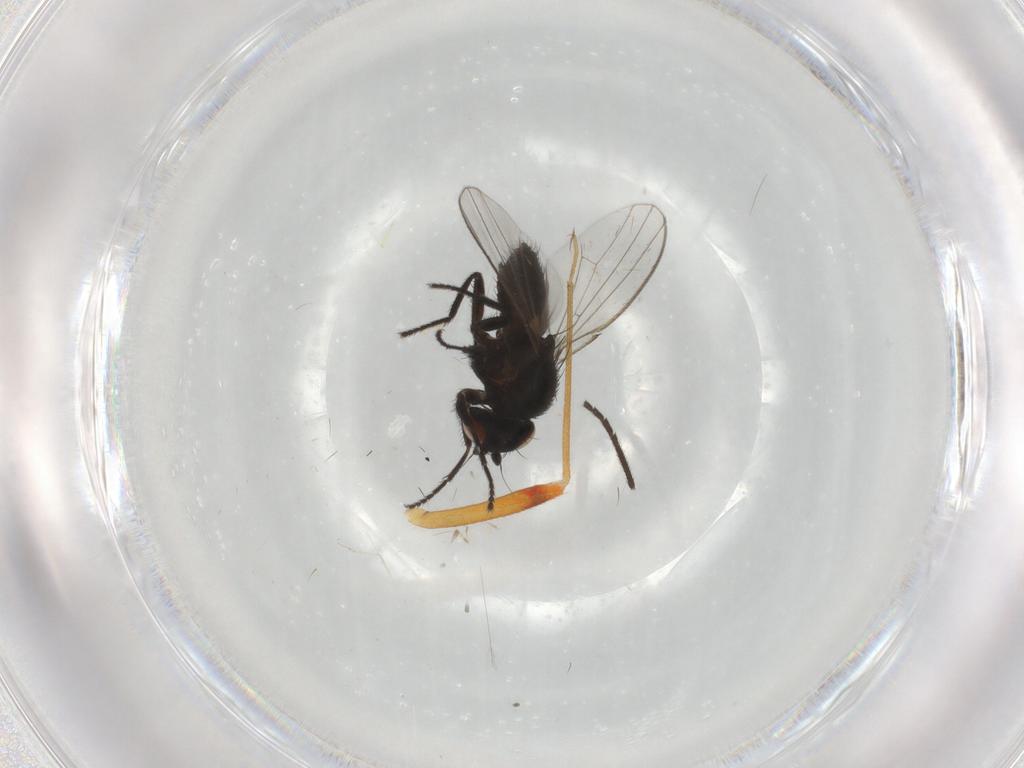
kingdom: Animalia
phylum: Arthropoda
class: Insecta
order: Diptera
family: Milichiidae
